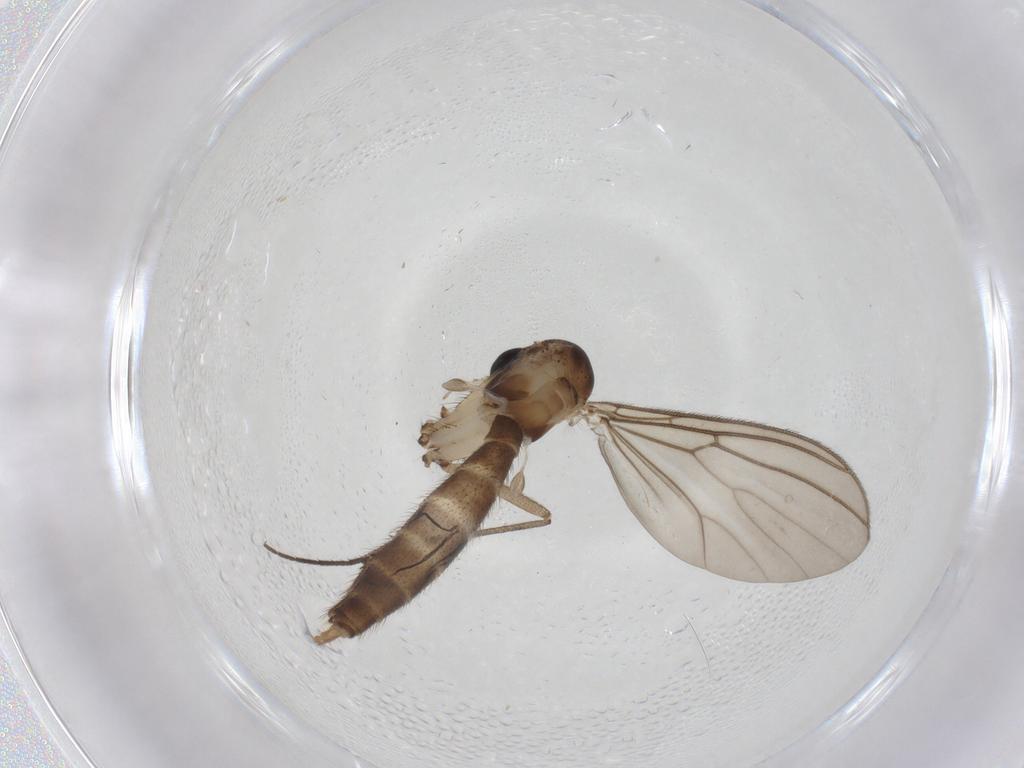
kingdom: Animalia
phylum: Arthropoda
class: Insecta
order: Diptera
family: Mycetophilidae
